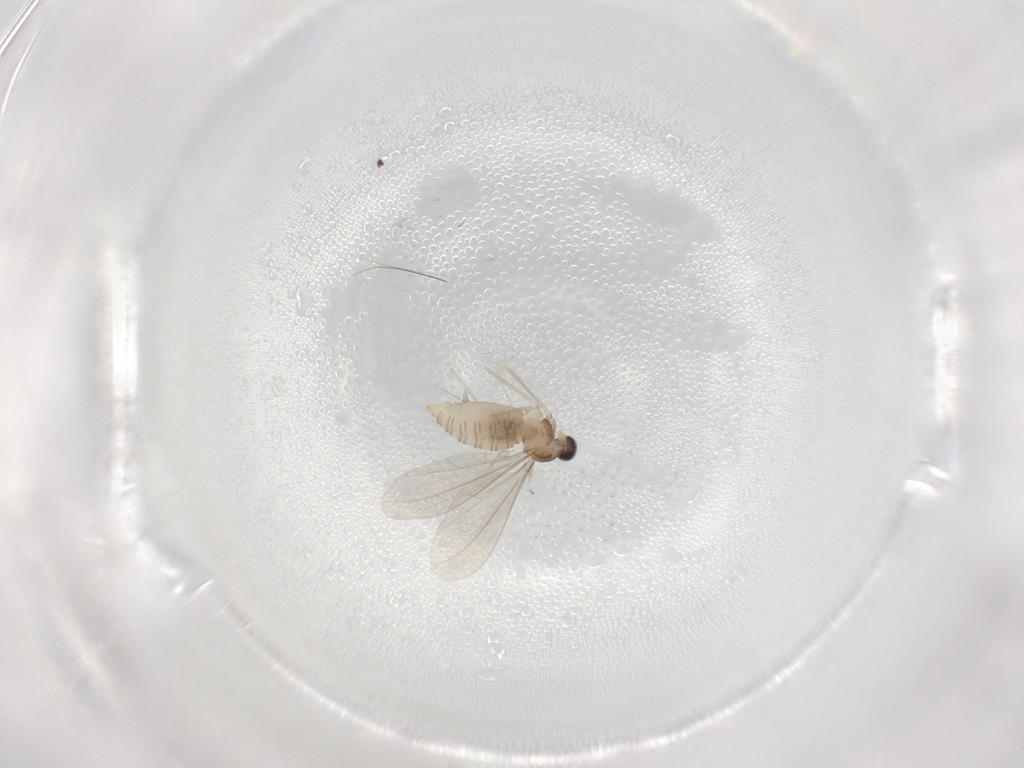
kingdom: Animalia
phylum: Arthropoda
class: Insecta
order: Diptera
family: Cecidomyiidae
